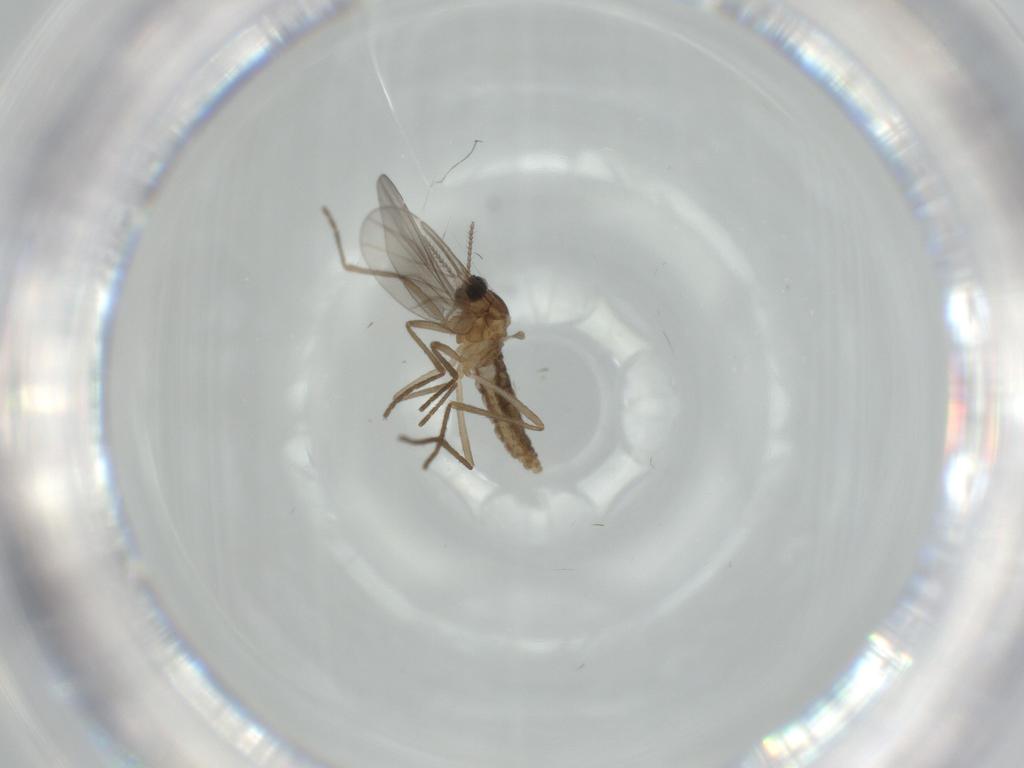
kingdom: Animalia
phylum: Arthropoda
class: Insecta
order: Diptera
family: Cecidomyiidae
